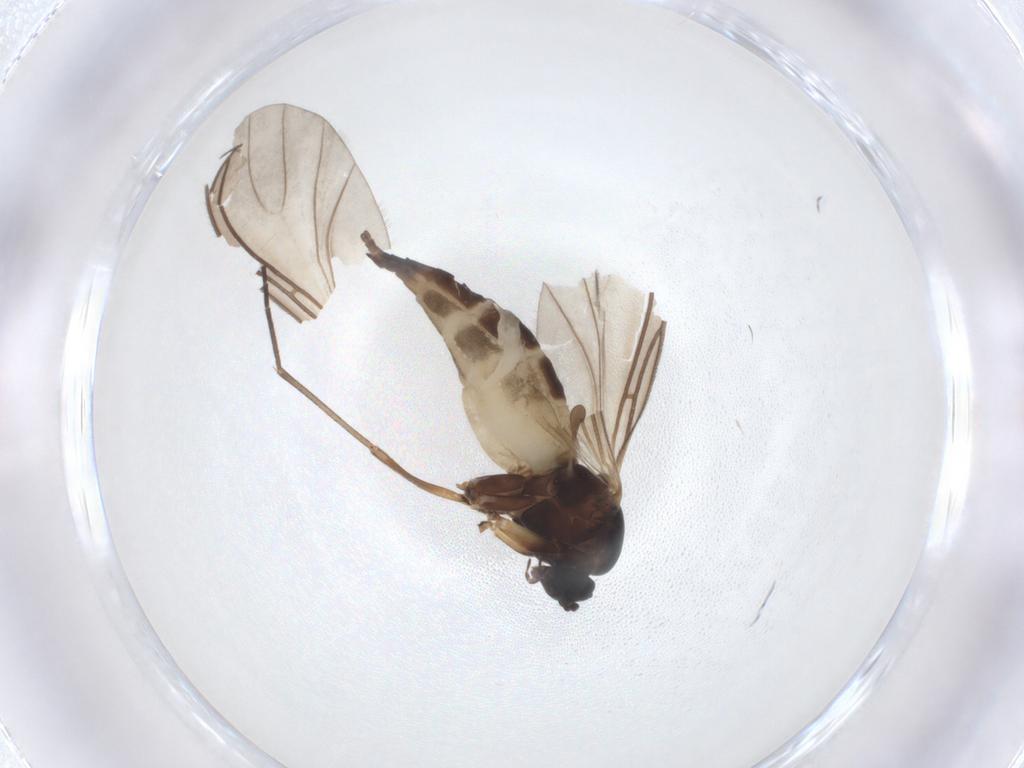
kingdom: Animalia
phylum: Arthropoda
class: Insecta
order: Diptera
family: Sciaridae
